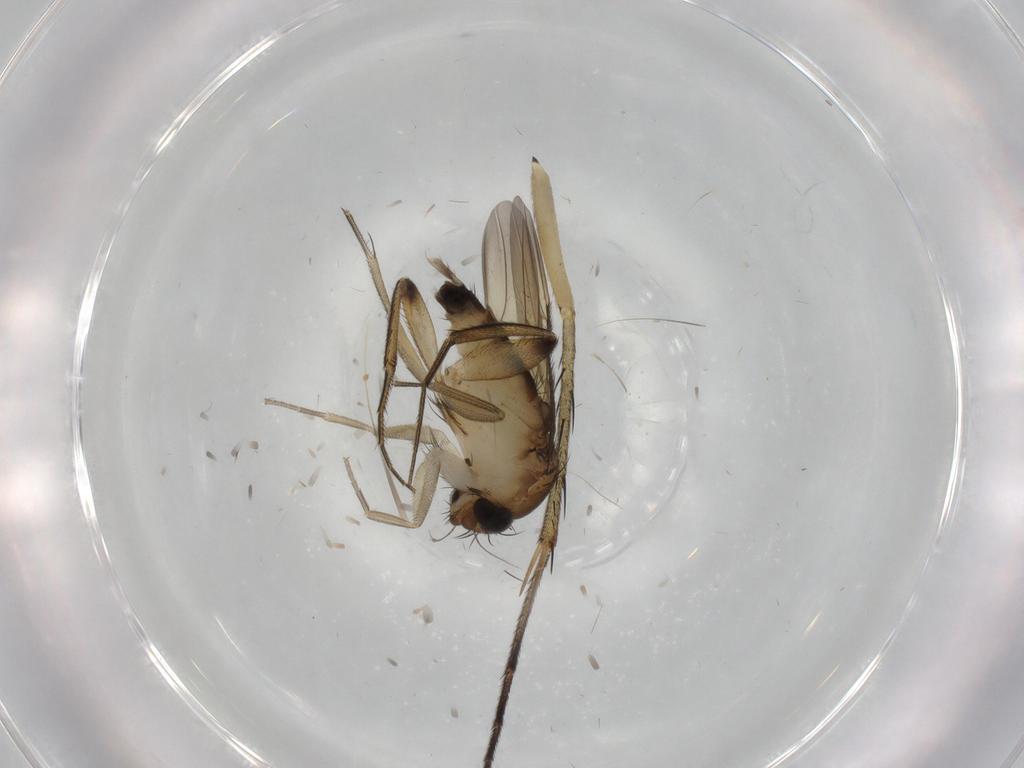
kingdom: Animalia
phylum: Arthropoda
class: Insecta
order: Diptera
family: Phoridae
